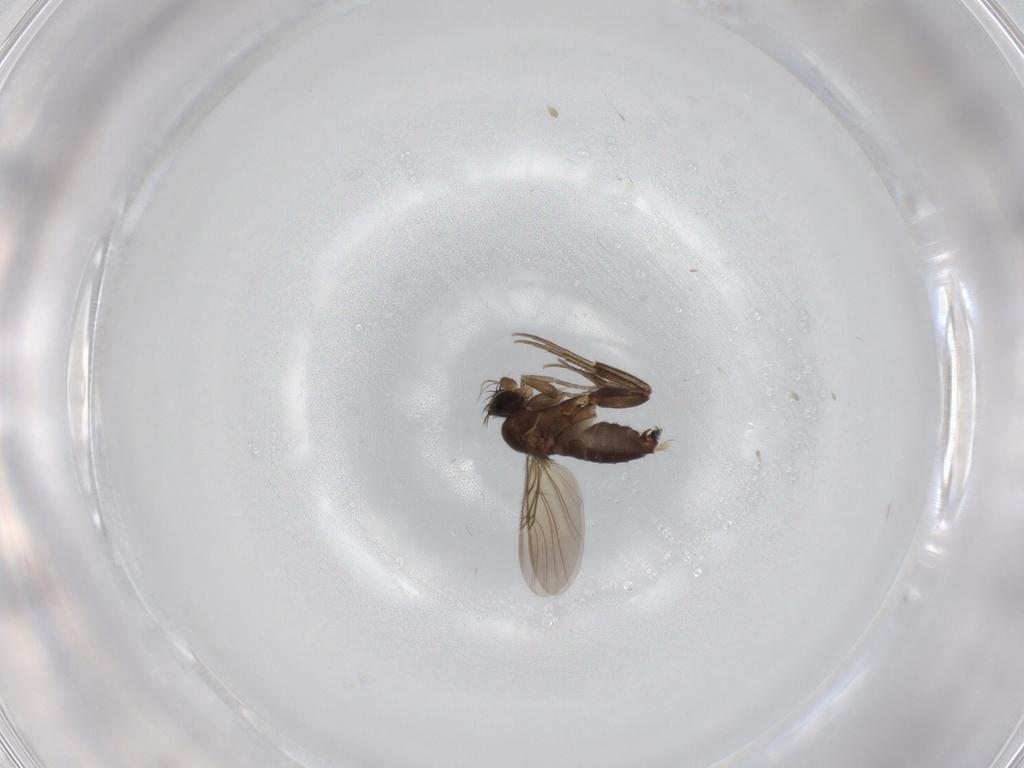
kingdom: Animalia
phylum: Arthropoda
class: Insecta
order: Diptera
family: Phoridae
